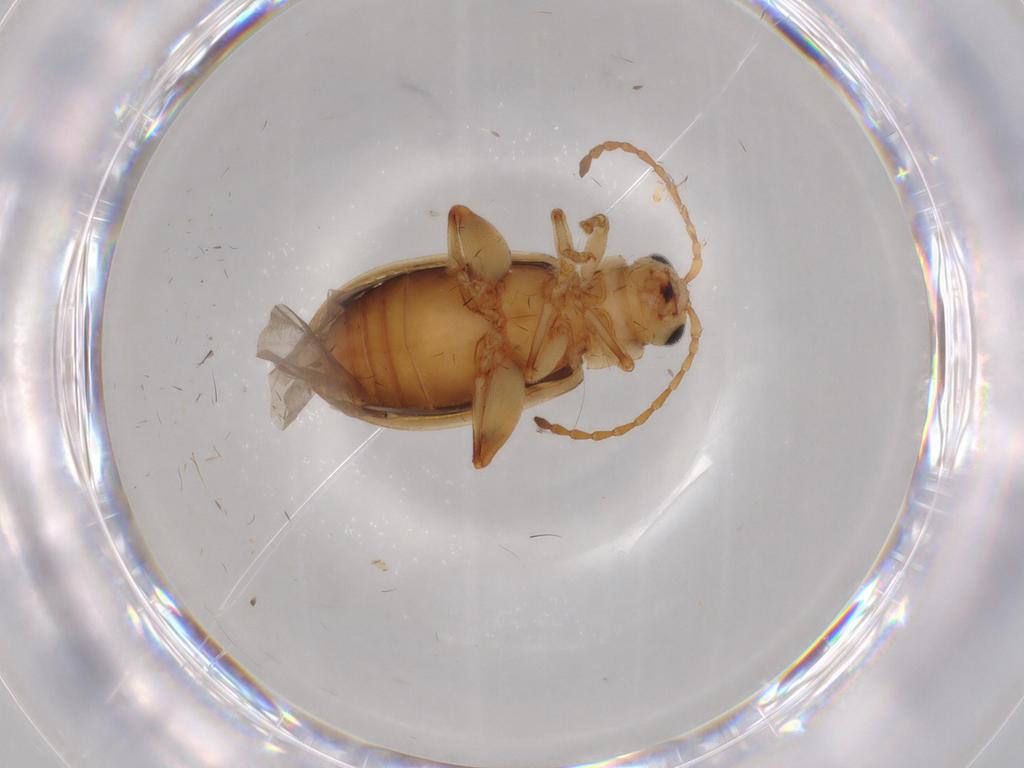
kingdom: Animalia
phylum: Arthropoda
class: Insecta
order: Coleoptera
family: Chrysomelidae
